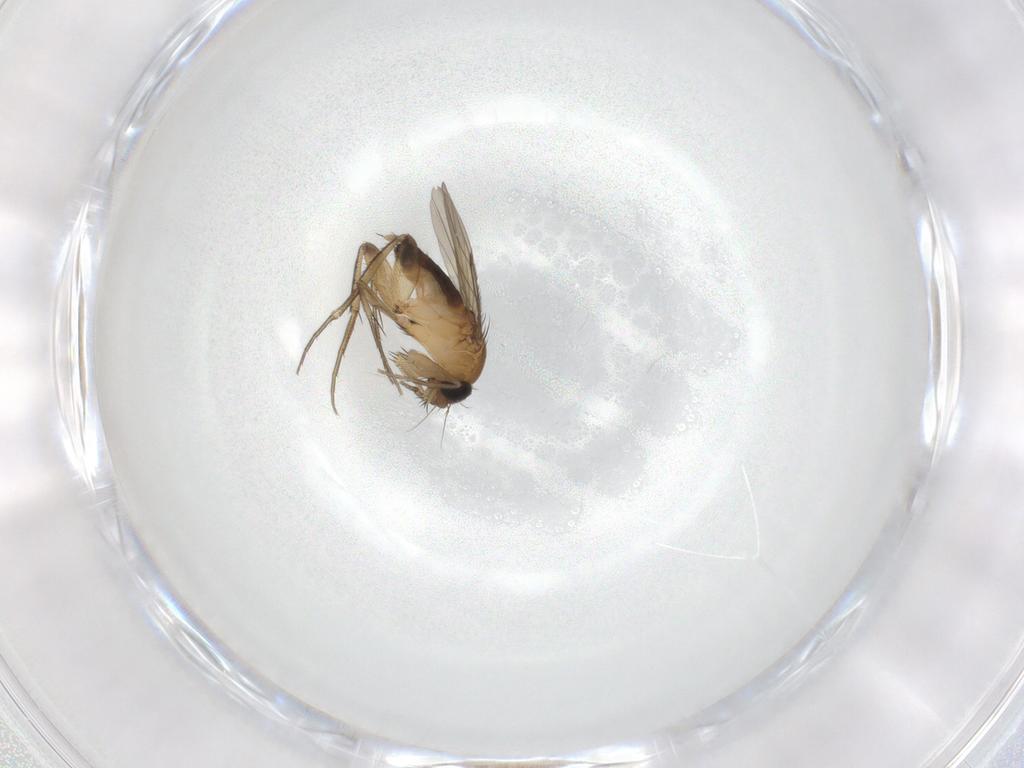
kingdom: Animalia
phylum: Arthropoda
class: Insecta
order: Diptera
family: Phoridae
